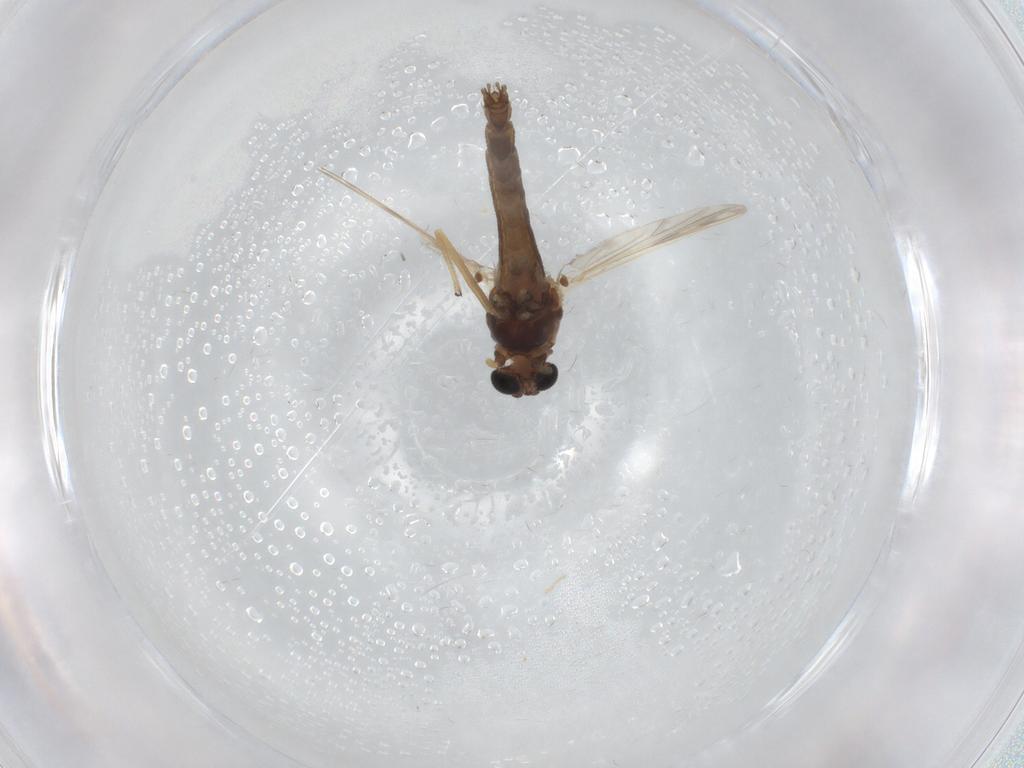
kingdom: Animalia
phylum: Arthropoda
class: Insecta
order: Diptera
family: Chironomidae
